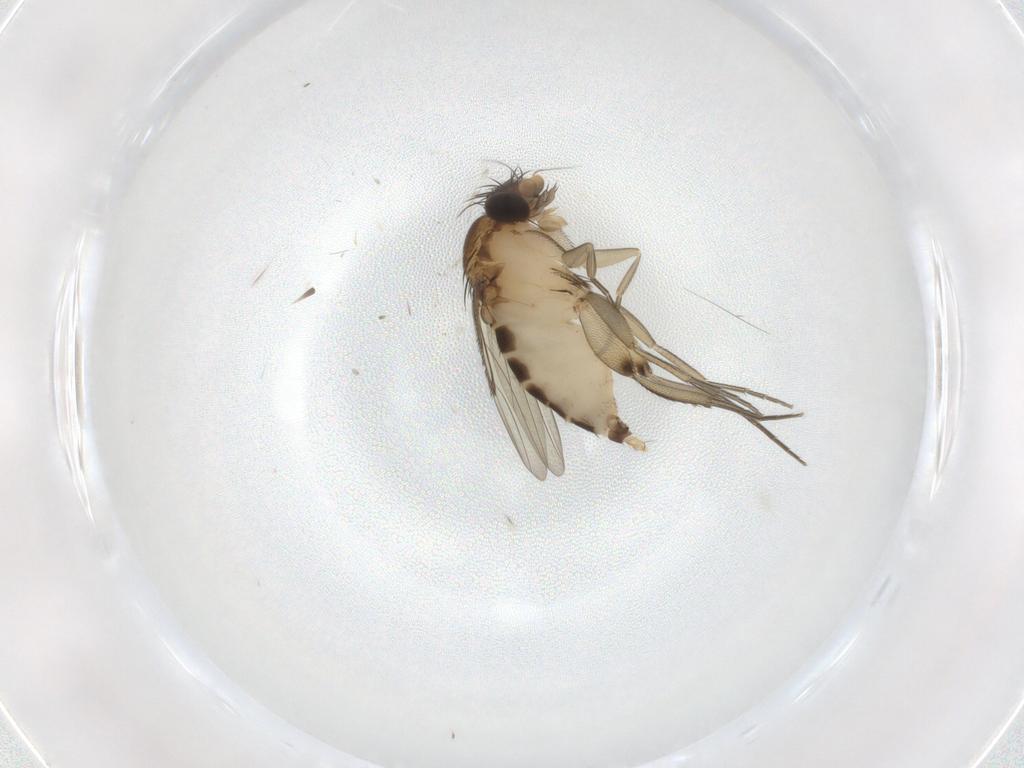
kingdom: Animalia
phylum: Arthropoda
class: Insecta
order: Diptera
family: Phoridae
